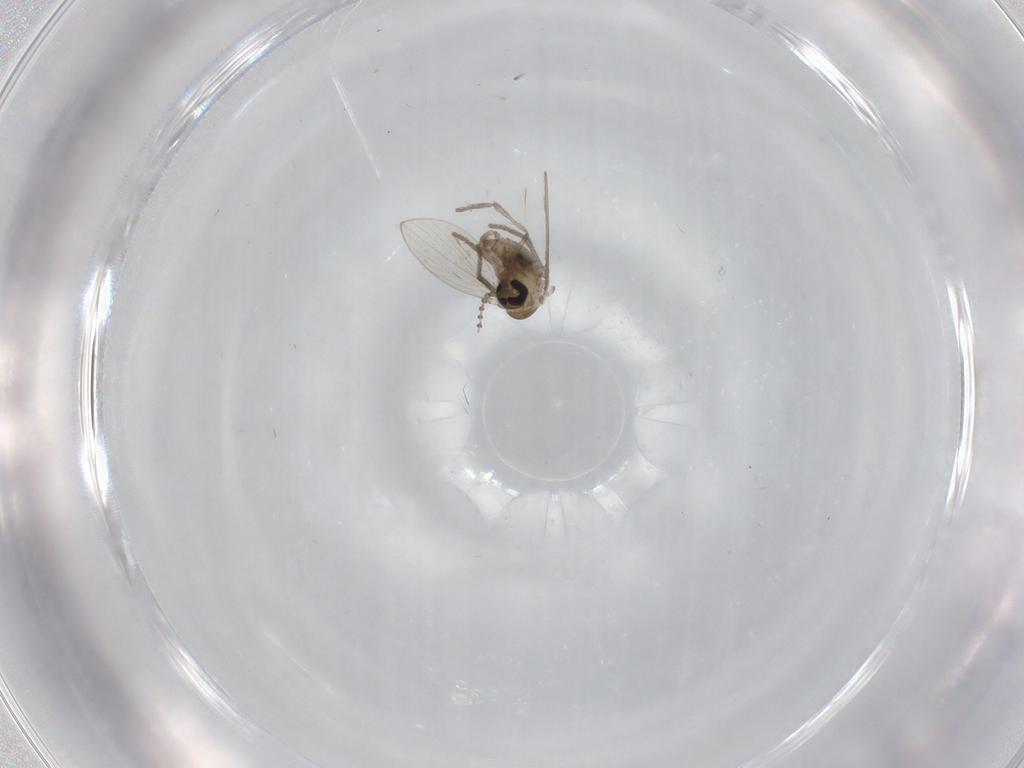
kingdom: Animalia
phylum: Arthropoda
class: Insecta
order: Diptera
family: Psychodidae
